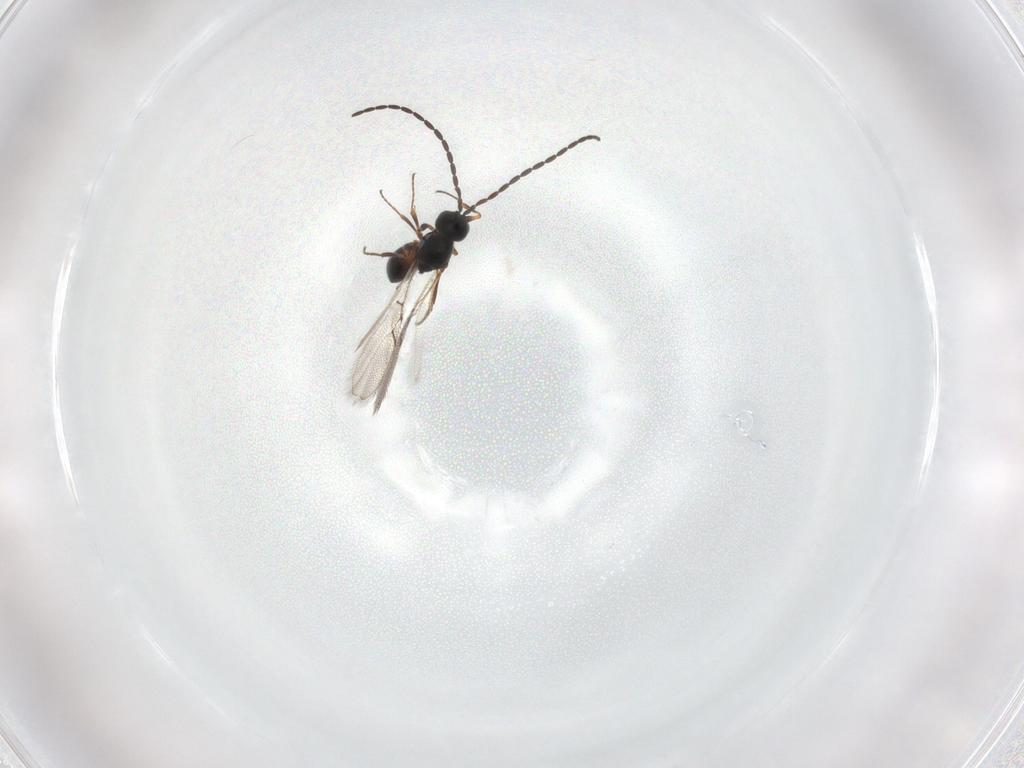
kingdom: Animalia
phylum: Arthropoda
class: Insecta
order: Hymenoptera
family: Figitidae
